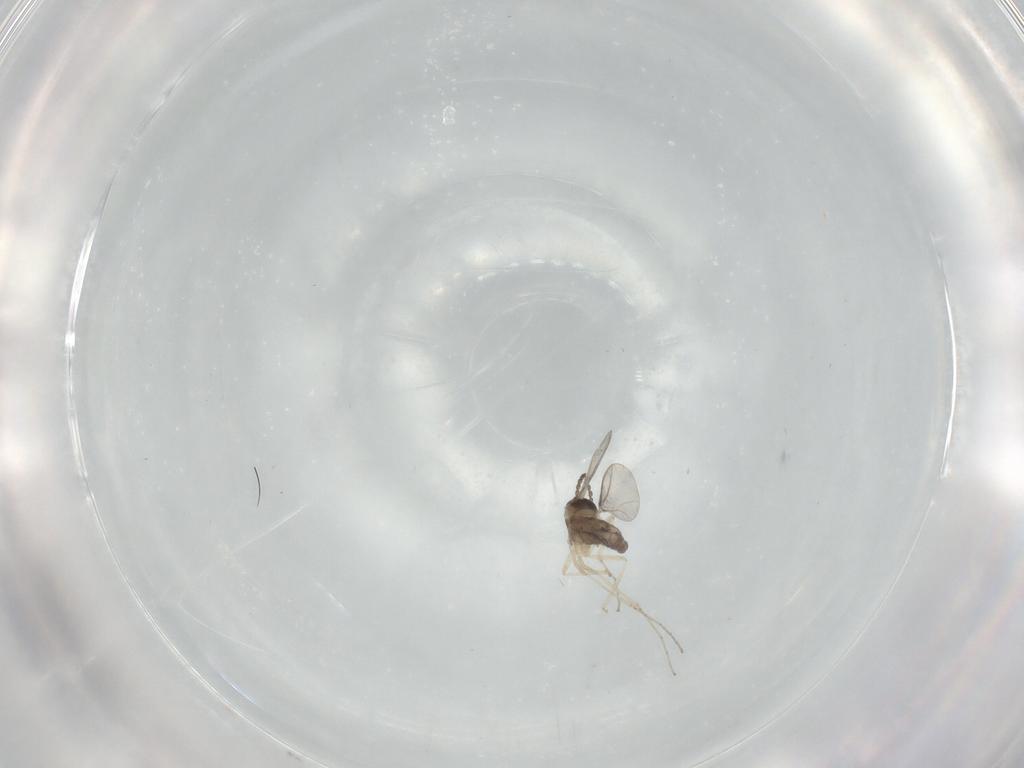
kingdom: Animalia
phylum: Arthropoda
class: Insecta
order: Diptera
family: Cecidomyiidae
